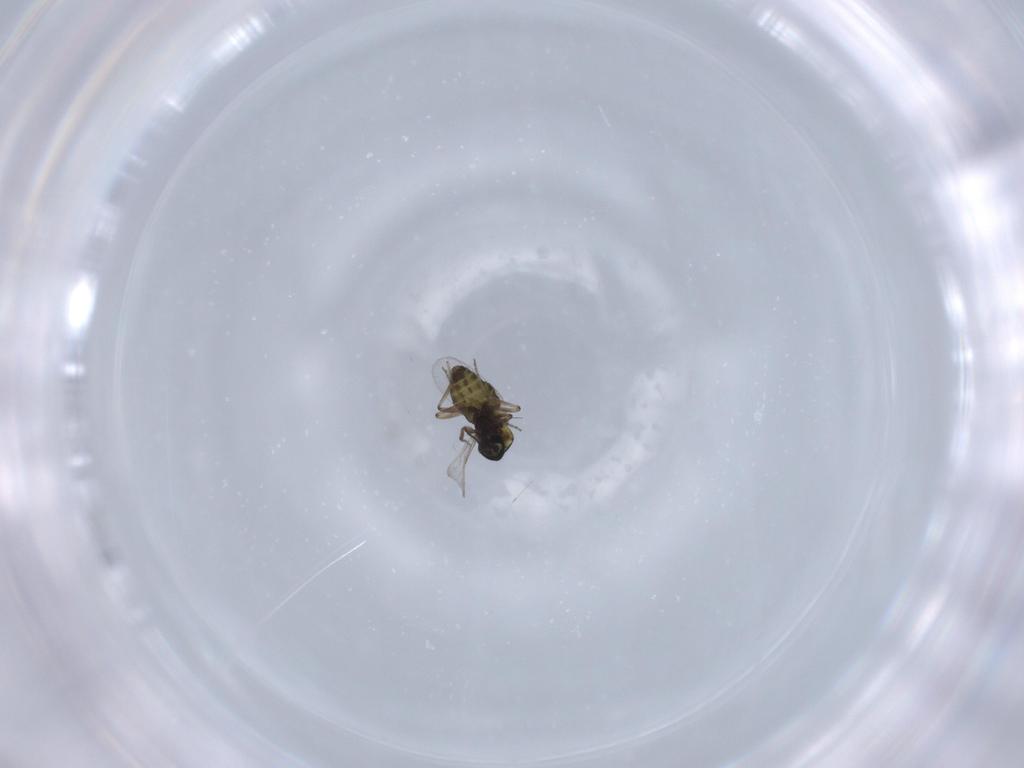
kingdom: Animalia
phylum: Arthropoda
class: Insecta
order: Diptera
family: Ceratopogonidae
